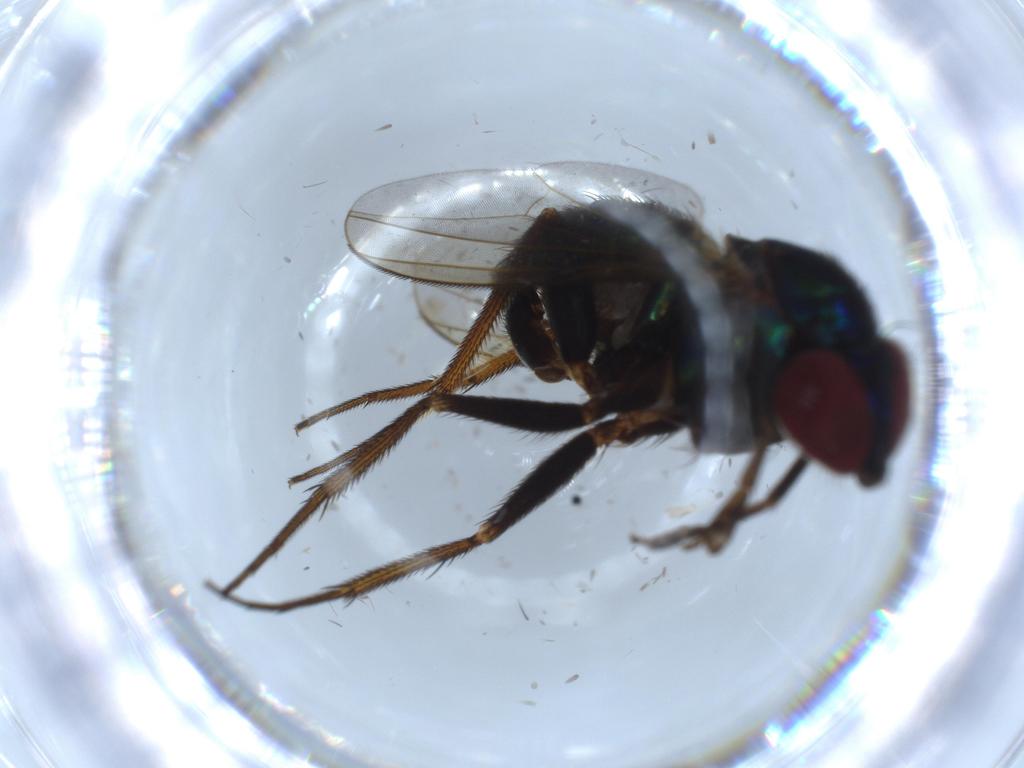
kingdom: Animalia
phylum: Arthropoda
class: Insecta
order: Diptera
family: Dolichopodidae
